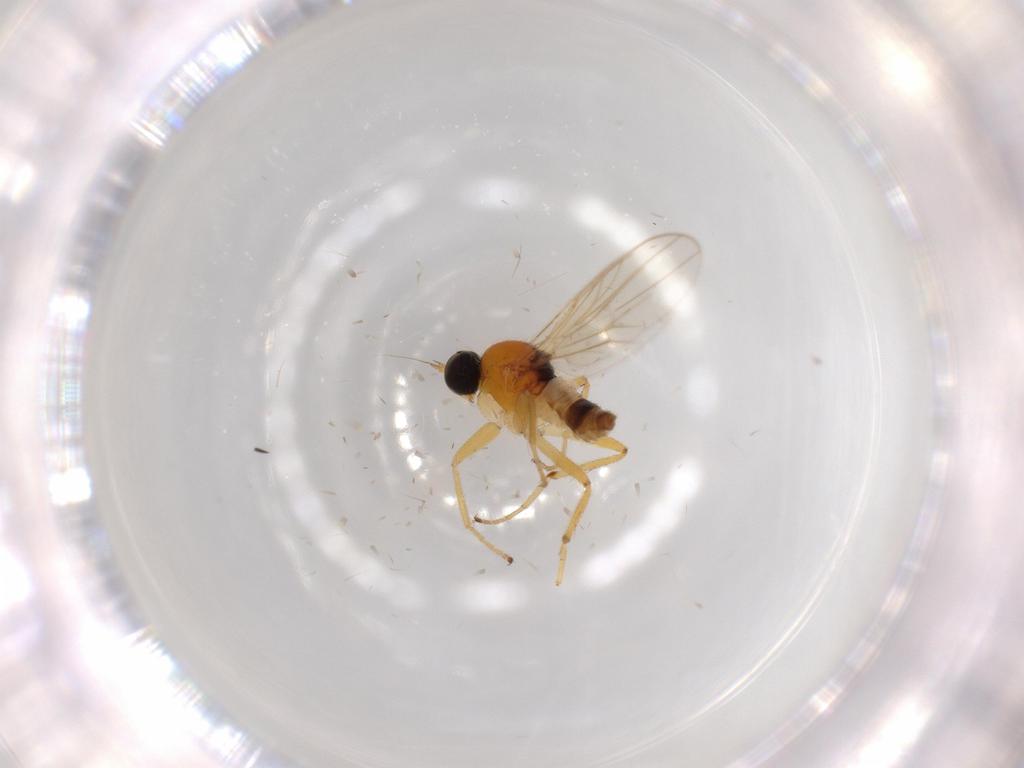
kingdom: Animalia
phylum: Arthropoda
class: Insecta
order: Diptera
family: Hybotidae
